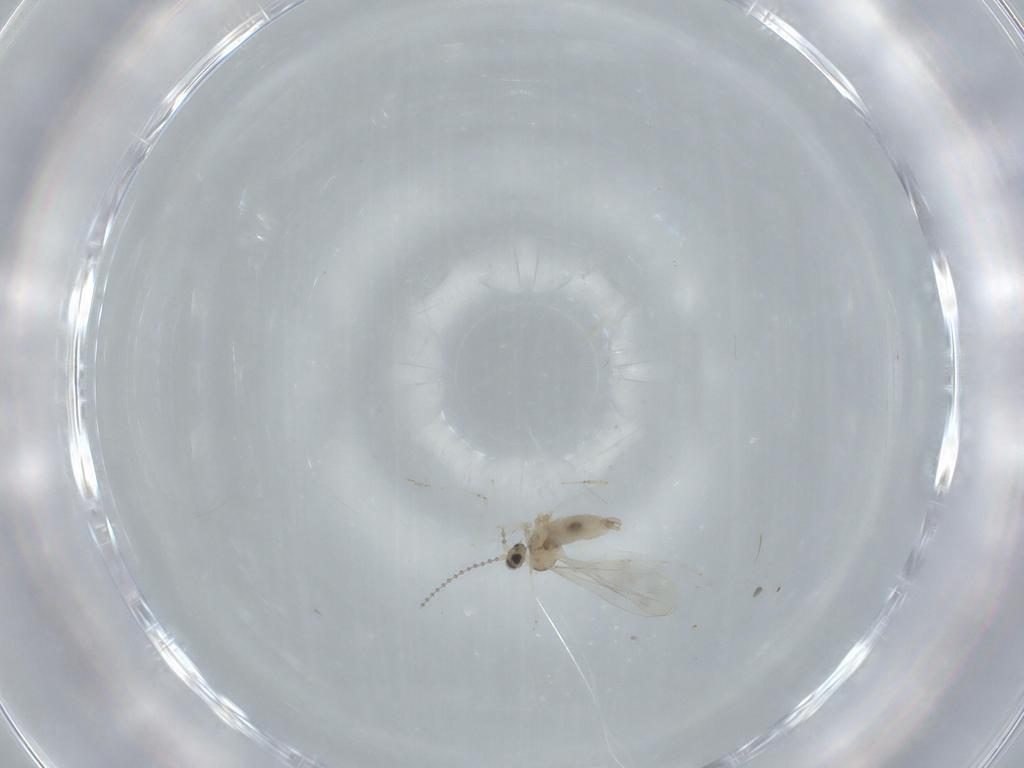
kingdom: Animalia
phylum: Arthropoda
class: Insecta
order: Diptera
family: Cecidomyiidae
